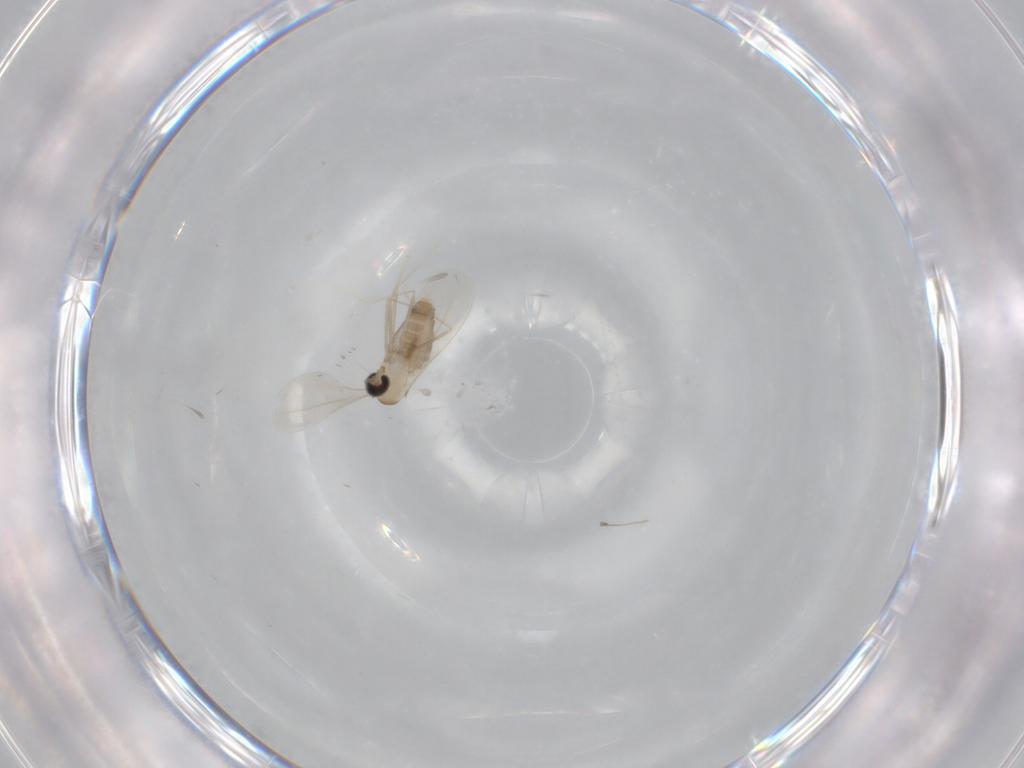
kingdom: Animalia
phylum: Arthropoda
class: Insecta
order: Diptera
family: Cecidomyiidae
